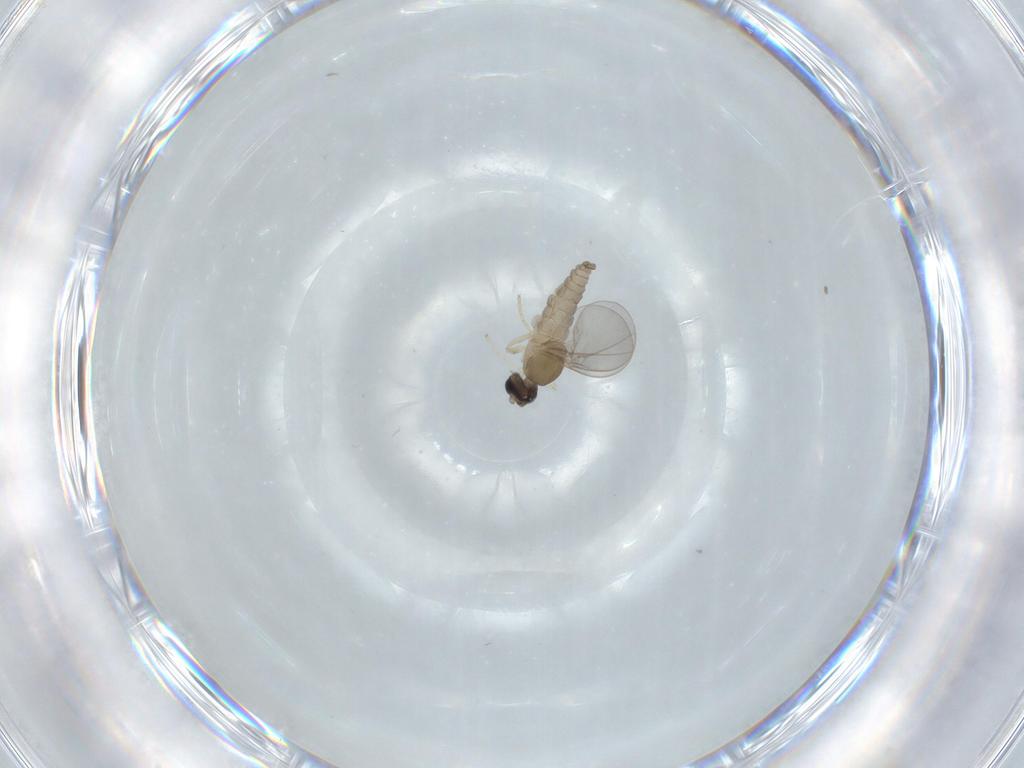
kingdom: Animalia
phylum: Arthropoda
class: Insecta
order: Diptera
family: Cecidomyiidae
